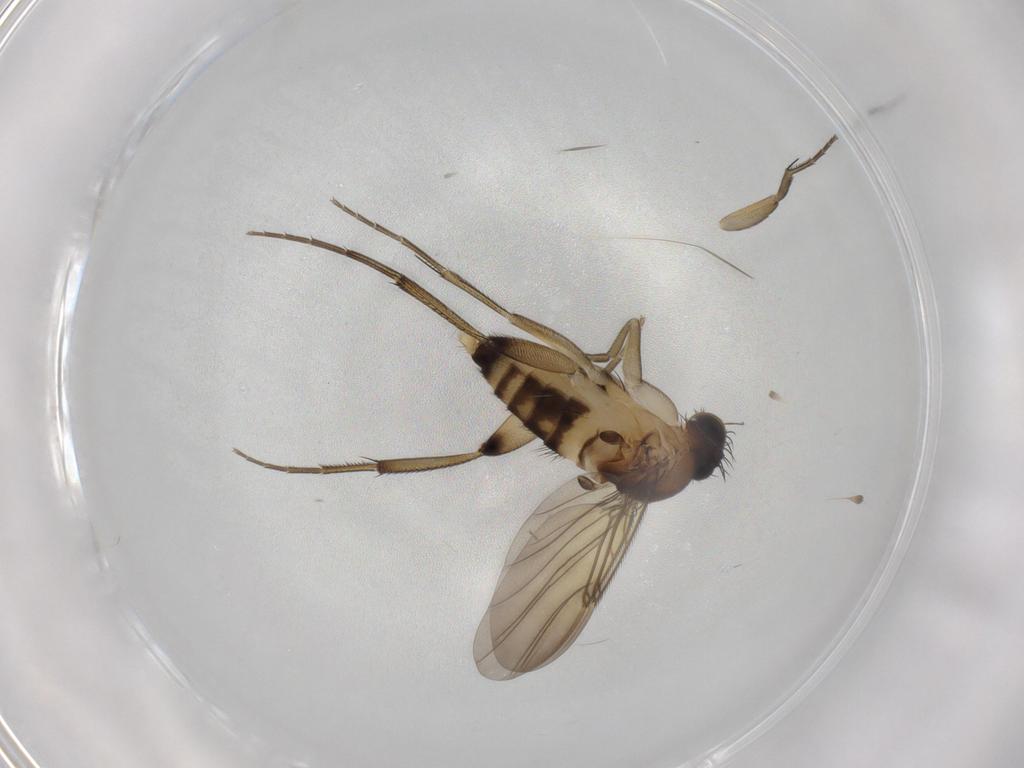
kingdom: Animalia
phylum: Arthropoda
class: Insecta
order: Diptera
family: Phoridae
